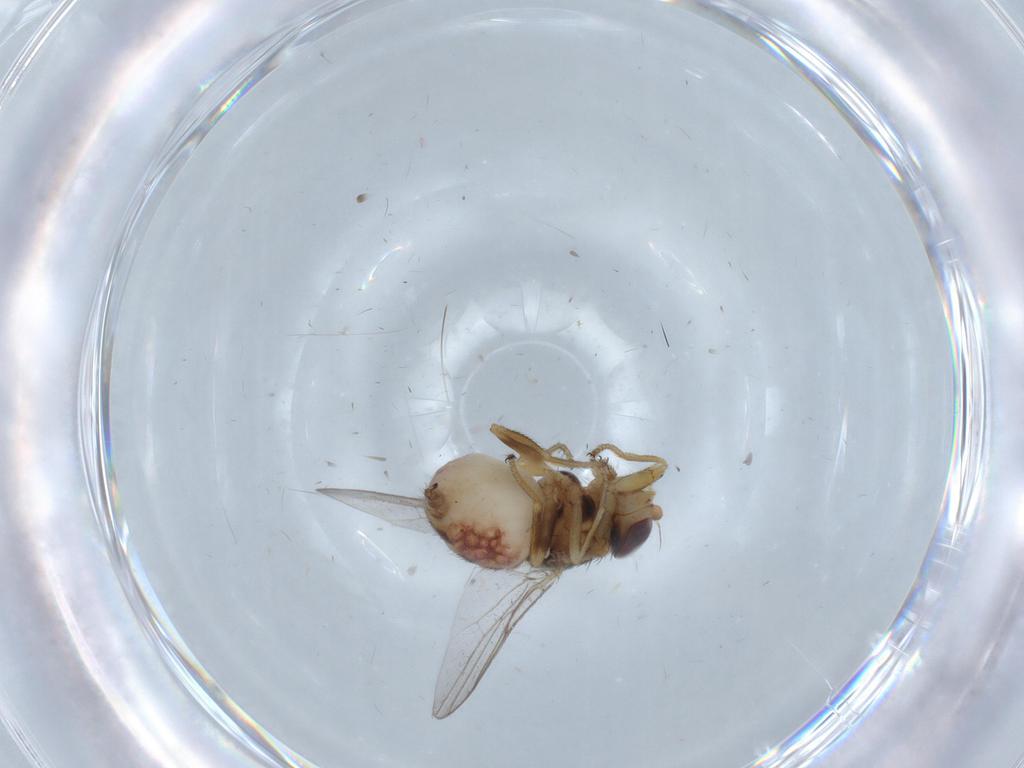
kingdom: Animalia
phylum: Arthropoda
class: Insecta
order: Diptera
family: Chloropidae
